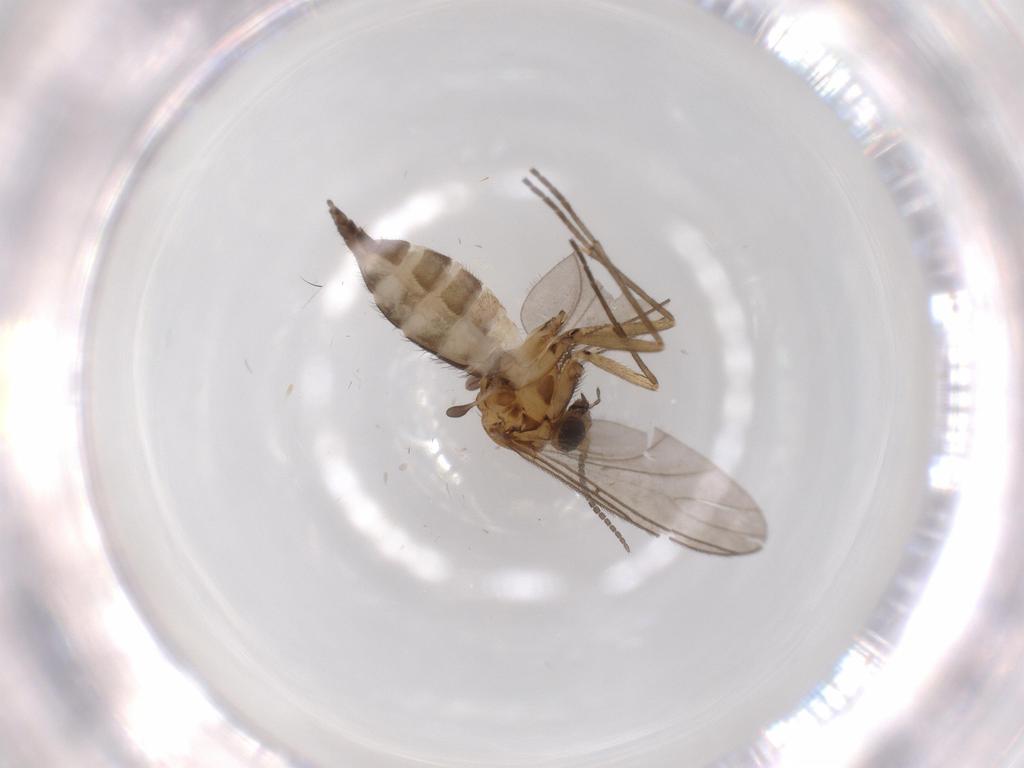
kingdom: Animalia
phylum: Arthropoda
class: Insecta
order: Diptera
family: Sciaridae
